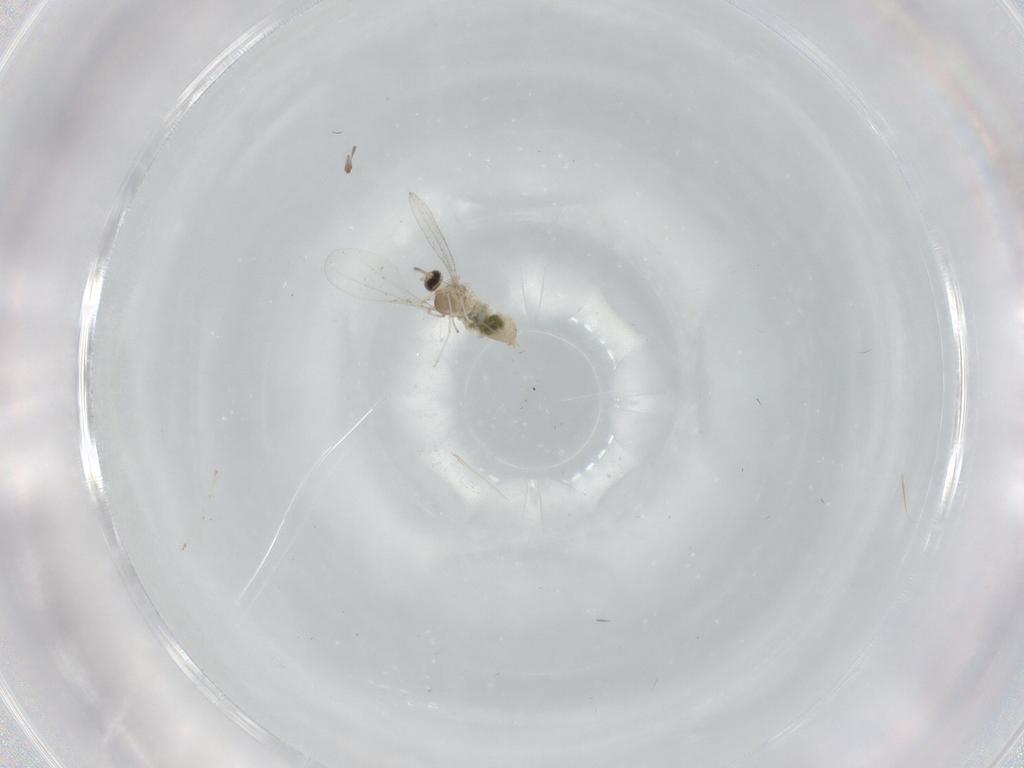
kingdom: Animalia
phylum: Arthropoda
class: Insecta
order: Diptera
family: Cecidomyiidae
